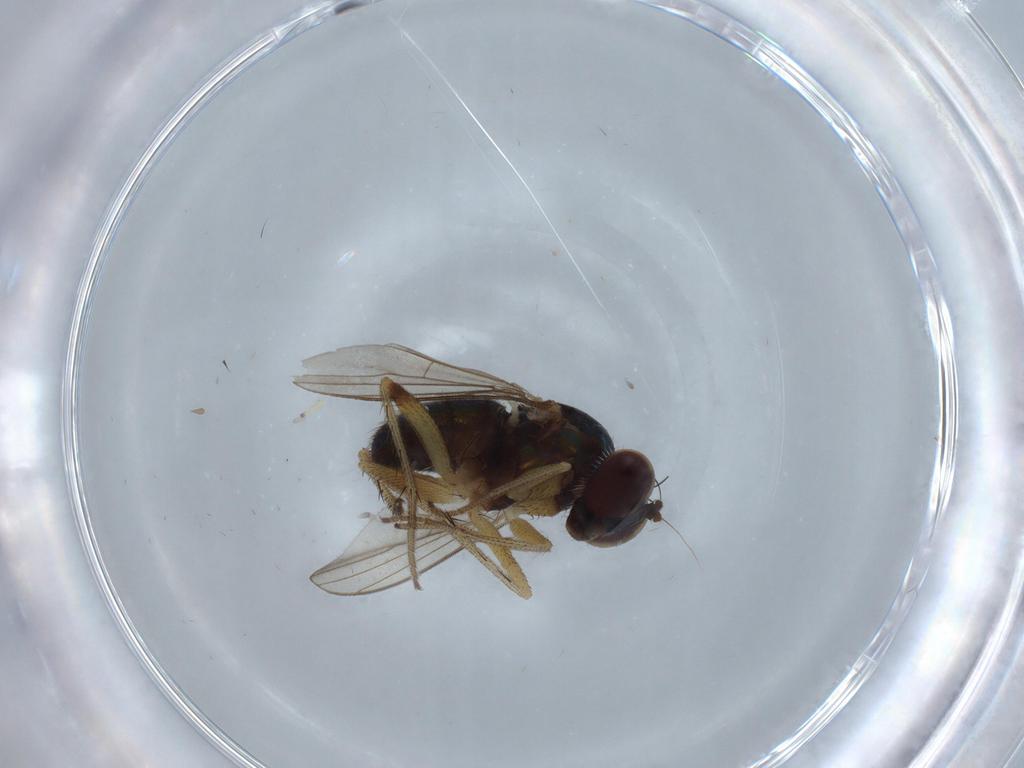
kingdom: Animalia
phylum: Arthropoda
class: Insecta
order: Diptera
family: Hybotidae
